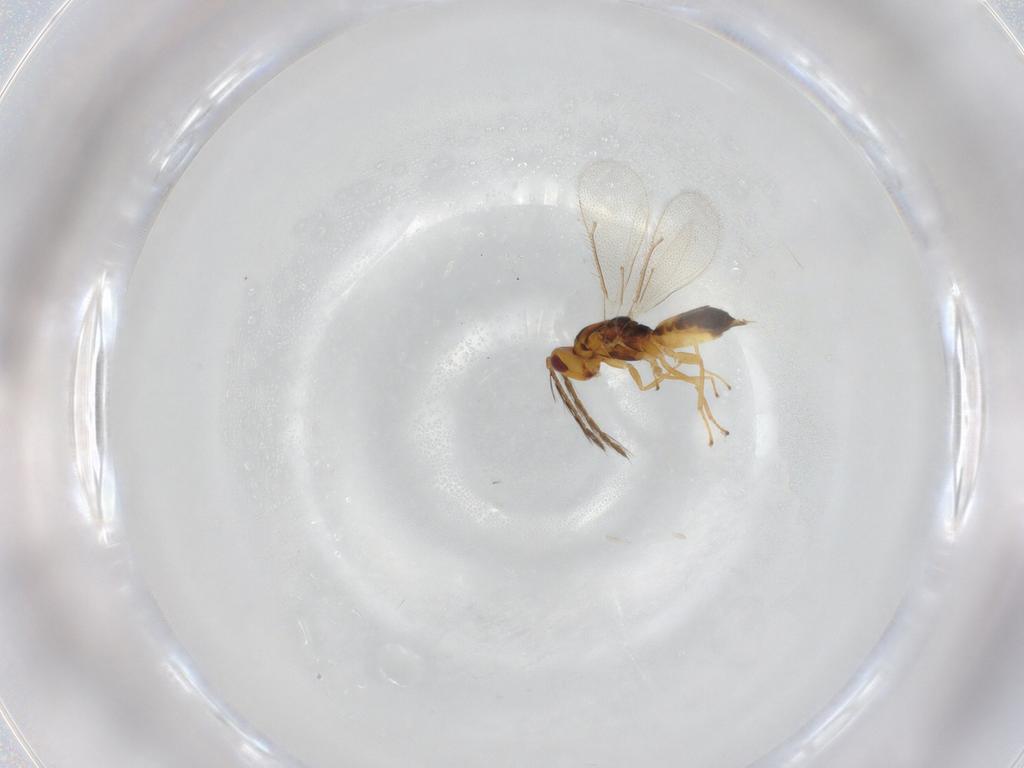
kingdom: Animalia
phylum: Arthropoda
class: Insecta
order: Hymenoptera
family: Eulophidae
